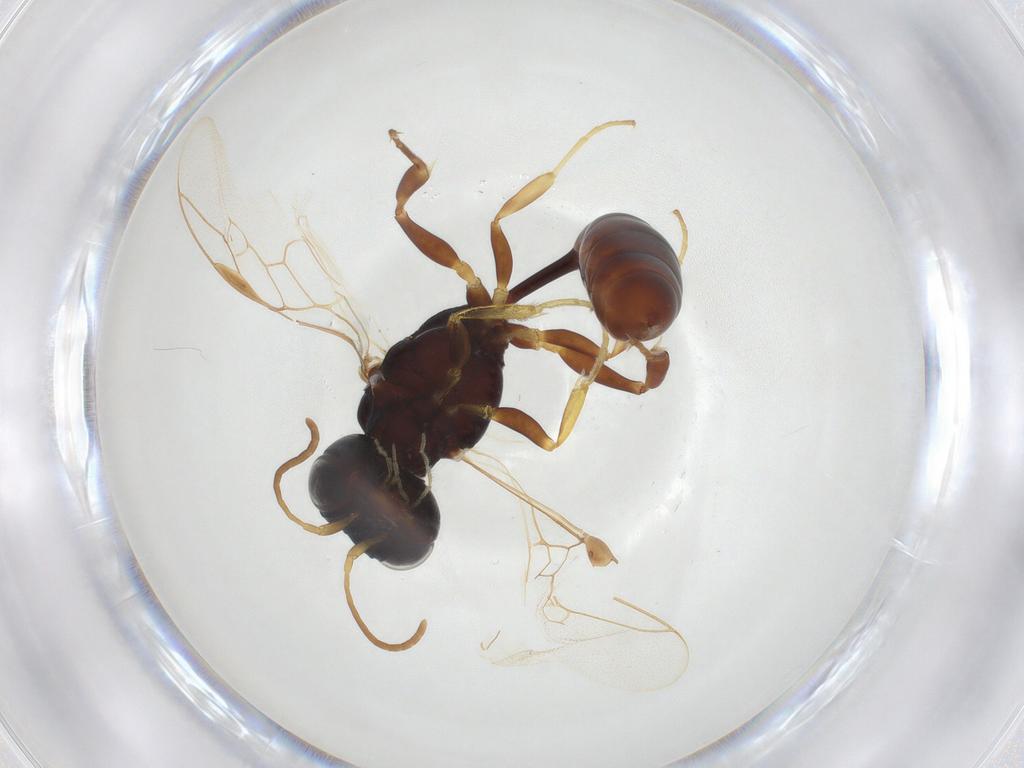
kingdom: Animalia
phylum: Arthropoda
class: Insecta
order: Hymenoptera
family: Pemphredonidae
